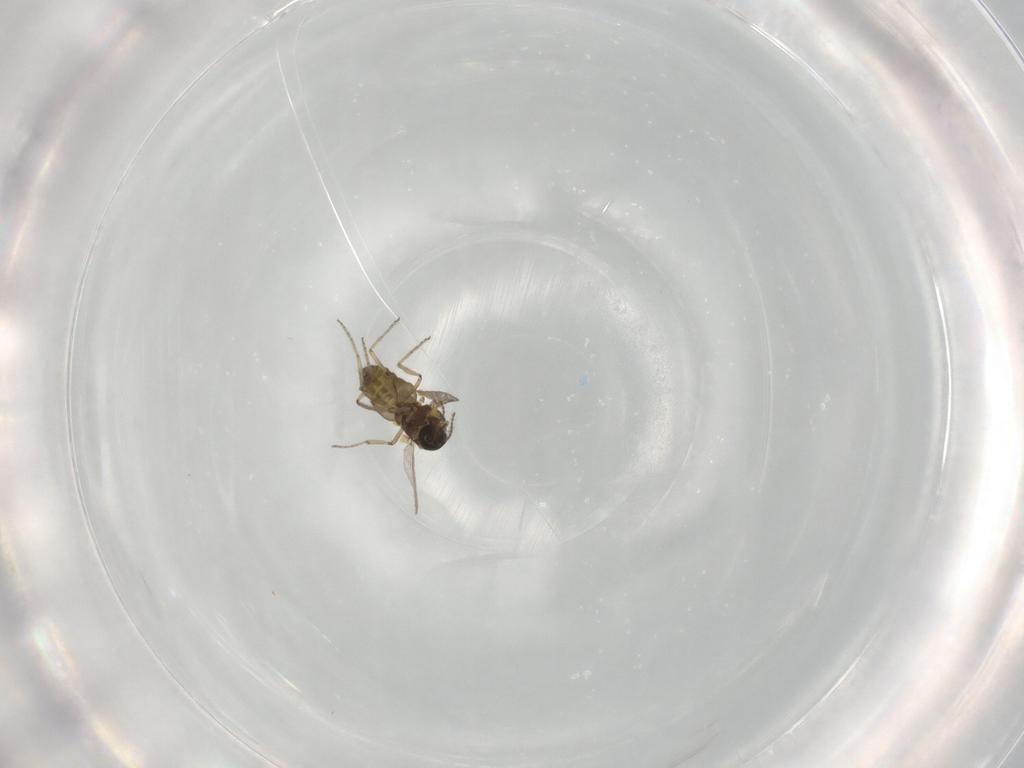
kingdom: Animalia
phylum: Arthropoda
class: Insecta
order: Diptera
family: Ceratopogonidae
